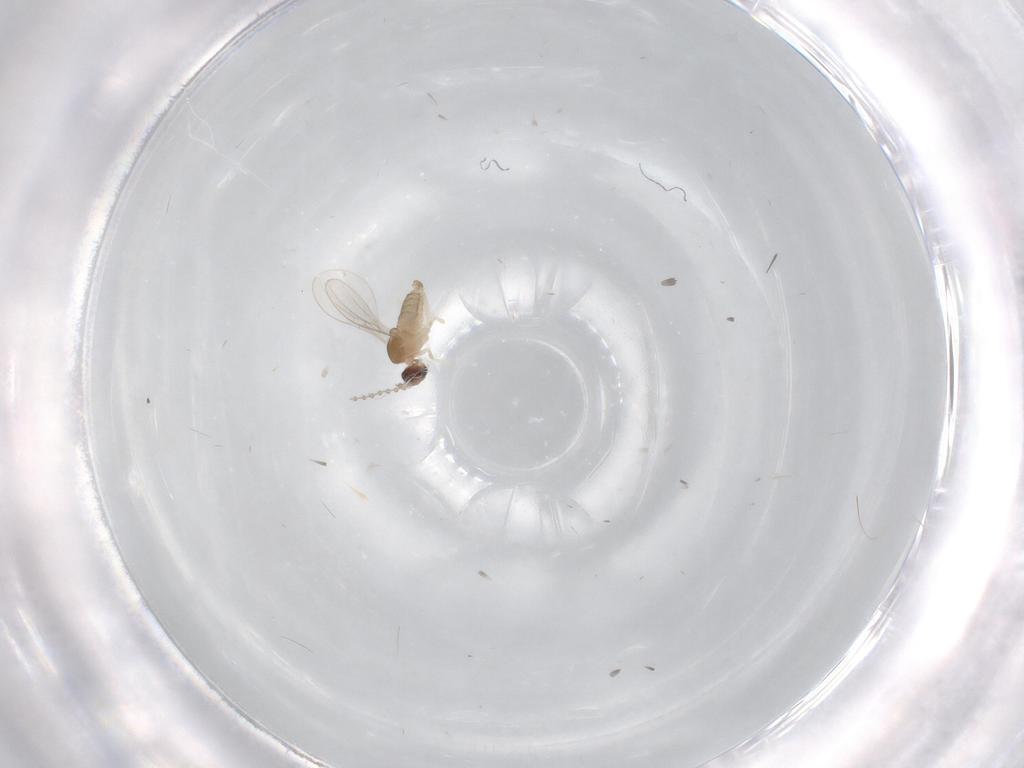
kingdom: Animalia
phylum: Arthropoda
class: Insecta
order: Diptera
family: Cecidomyiidae
